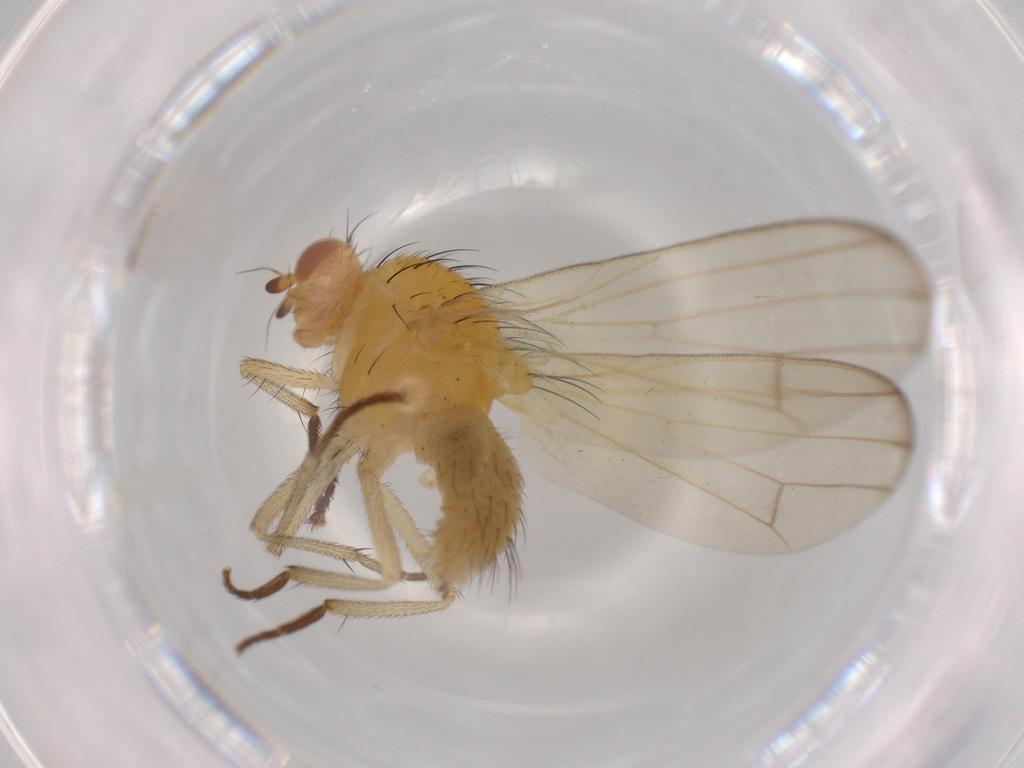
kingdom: Animalia
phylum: Arthropoda
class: Insecta
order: Diptera
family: Lauxaniidae
